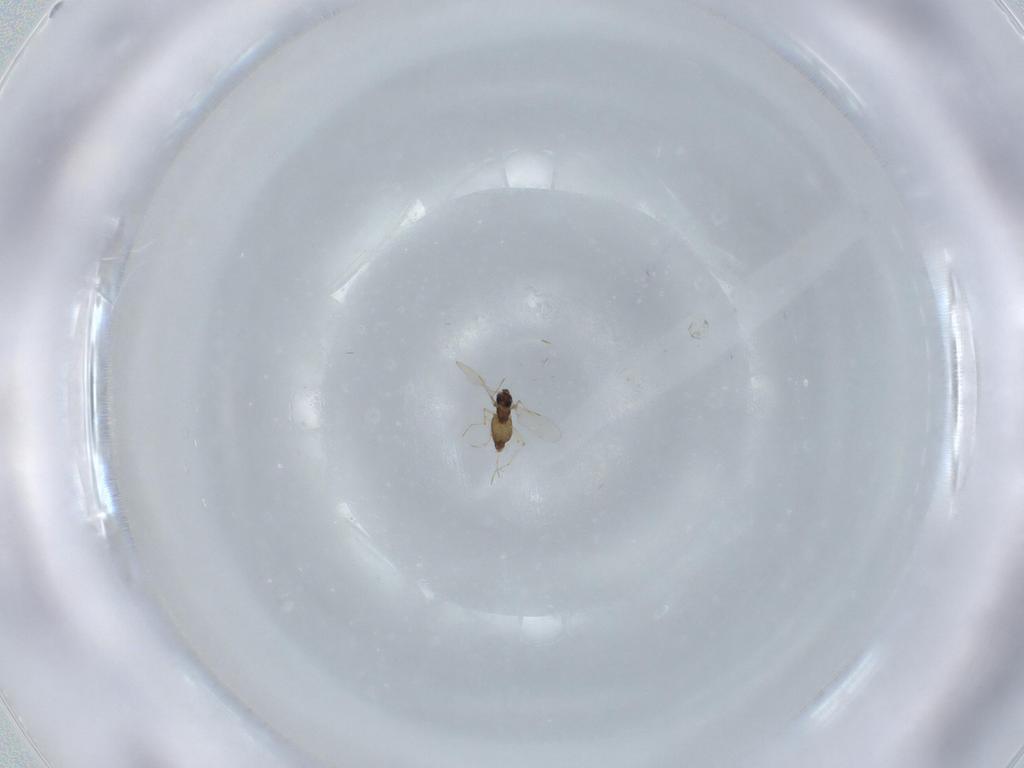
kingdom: Animalia
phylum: Arthropoda
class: Insecta
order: Diptera
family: Chironomidae
